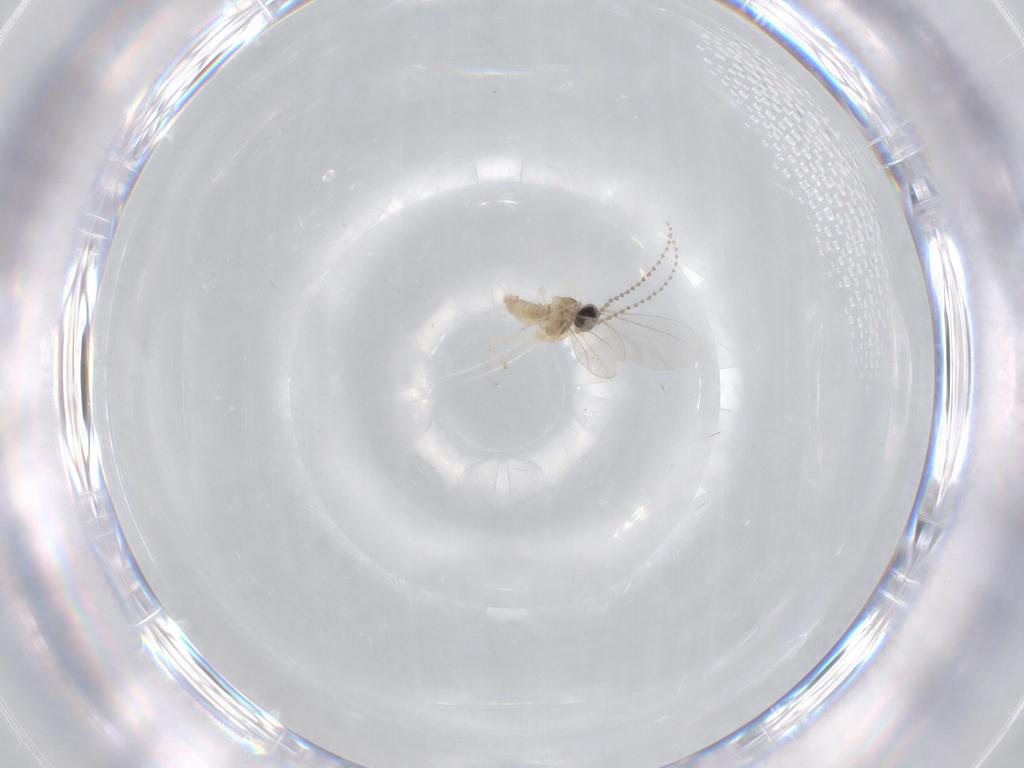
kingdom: Animalia
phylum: Arthropoda
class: Insecta
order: Diptera
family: Cecidomyiidae
